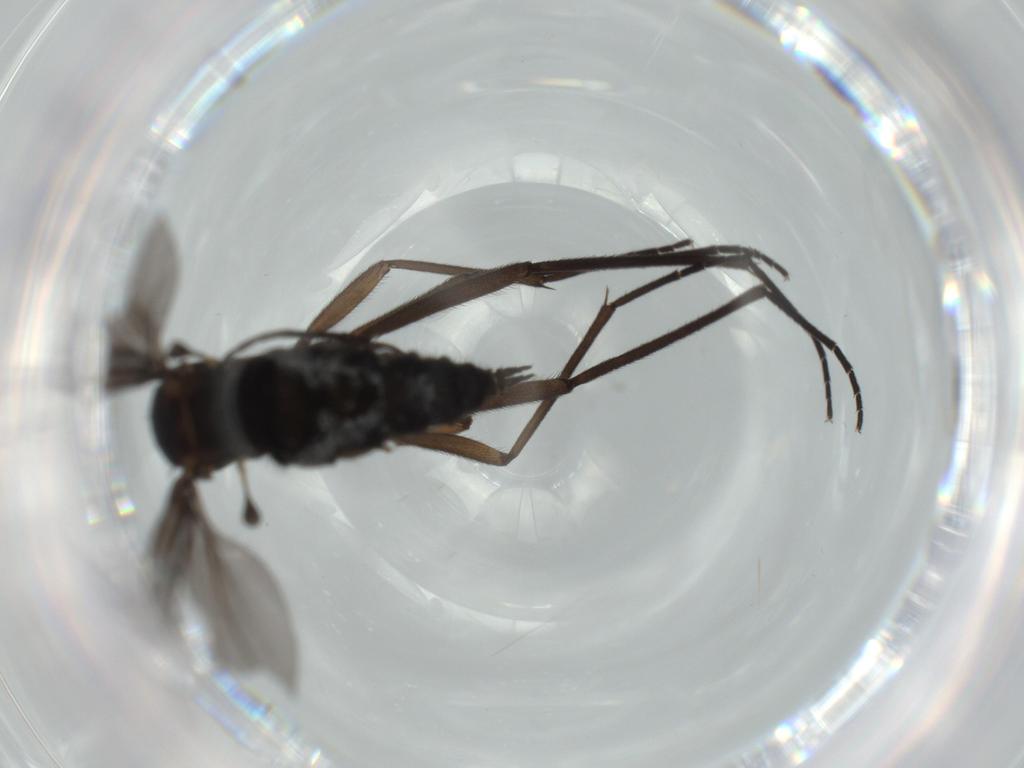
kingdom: Animalia
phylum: Arthropoda
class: Insecta
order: Diptera
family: Sciaridae
